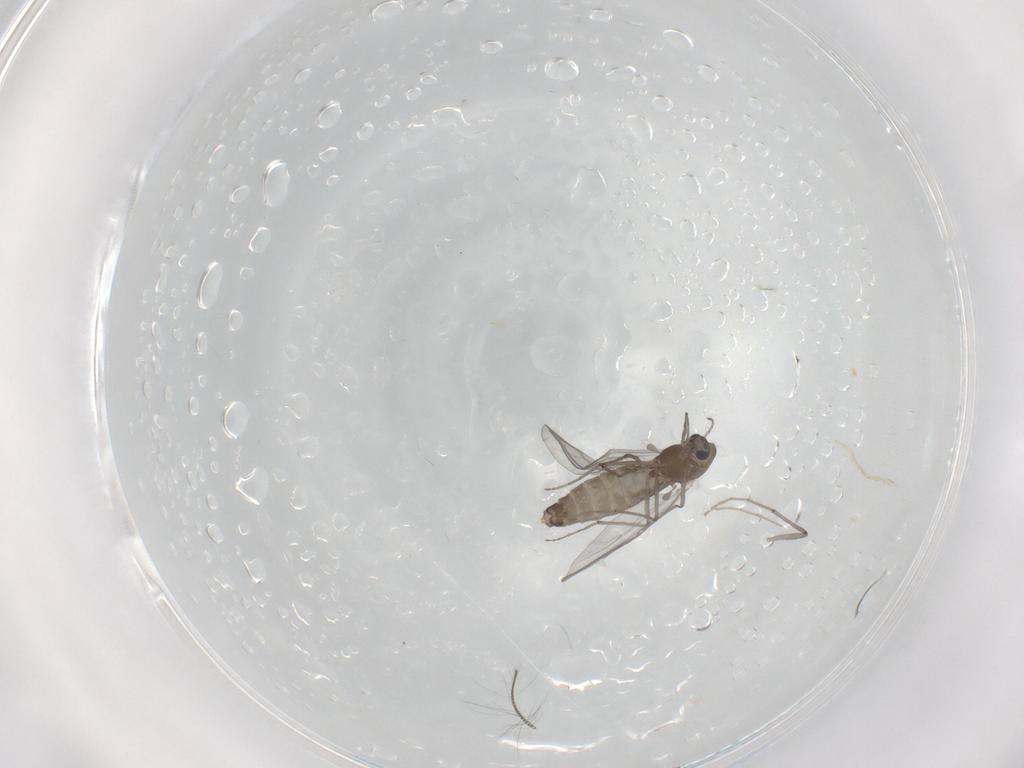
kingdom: Animalia
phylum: Arthropoda
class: Insecta
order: Diptera
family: Chironomidae
